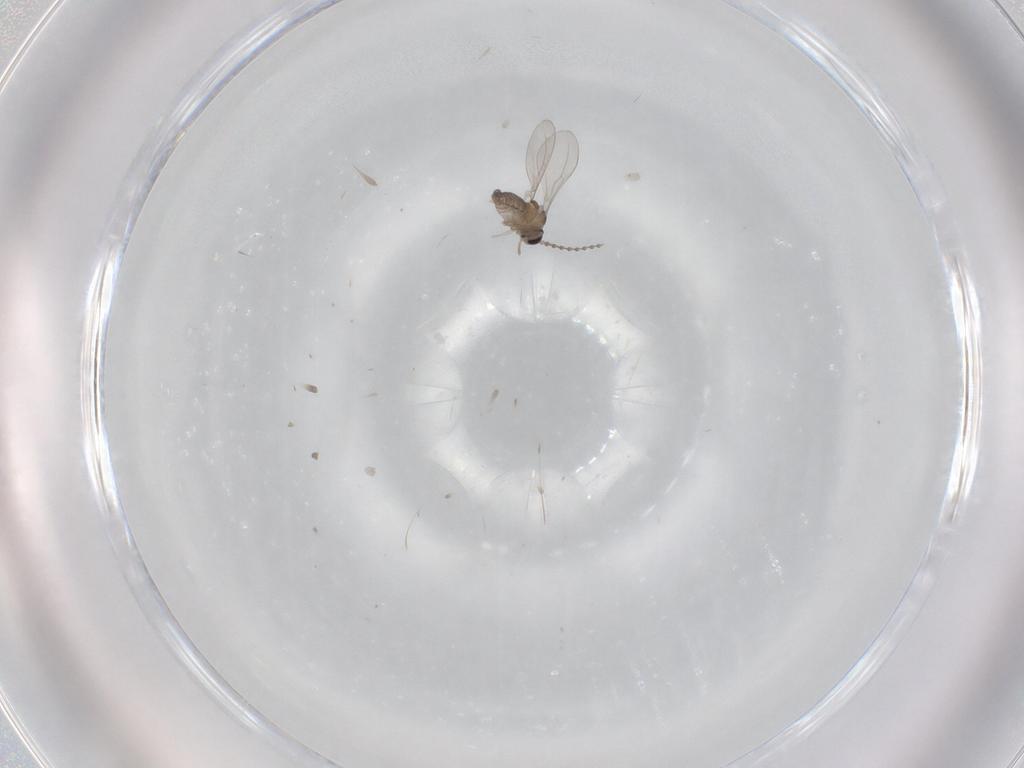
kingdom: Animalia
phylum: Arthropoda
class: Insecta
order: Diptera
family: Cecidomyiidae
